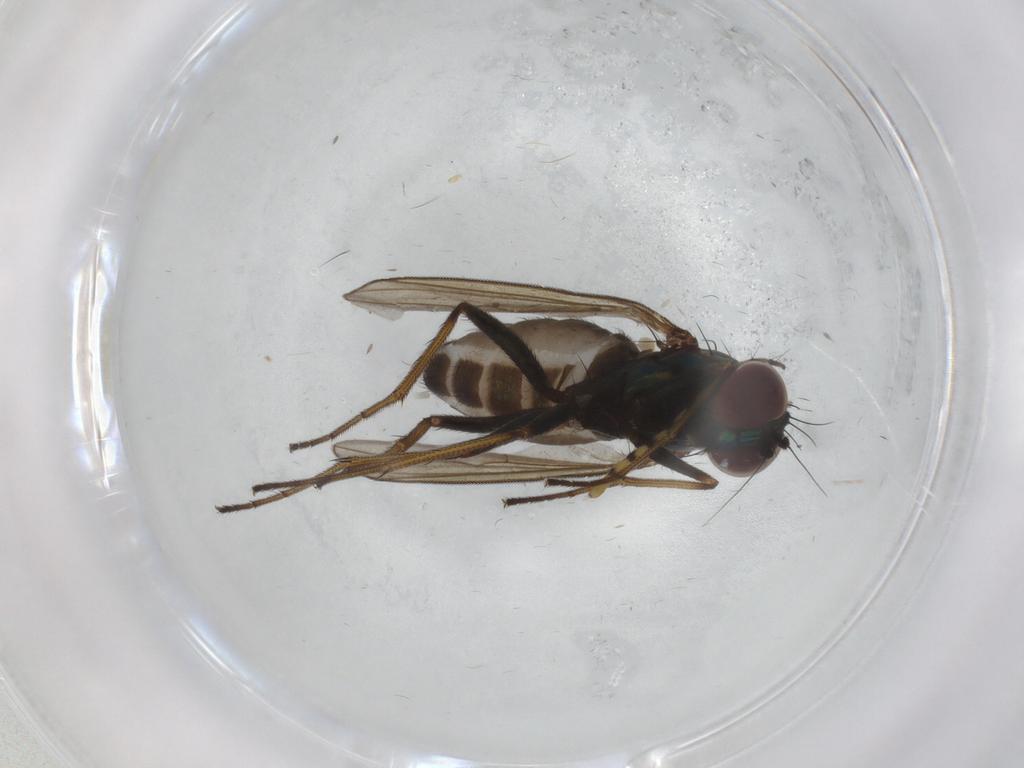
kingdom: Animalia
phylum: Arthropoda
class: Insecta
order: Diptera
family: Dolichopodidae
